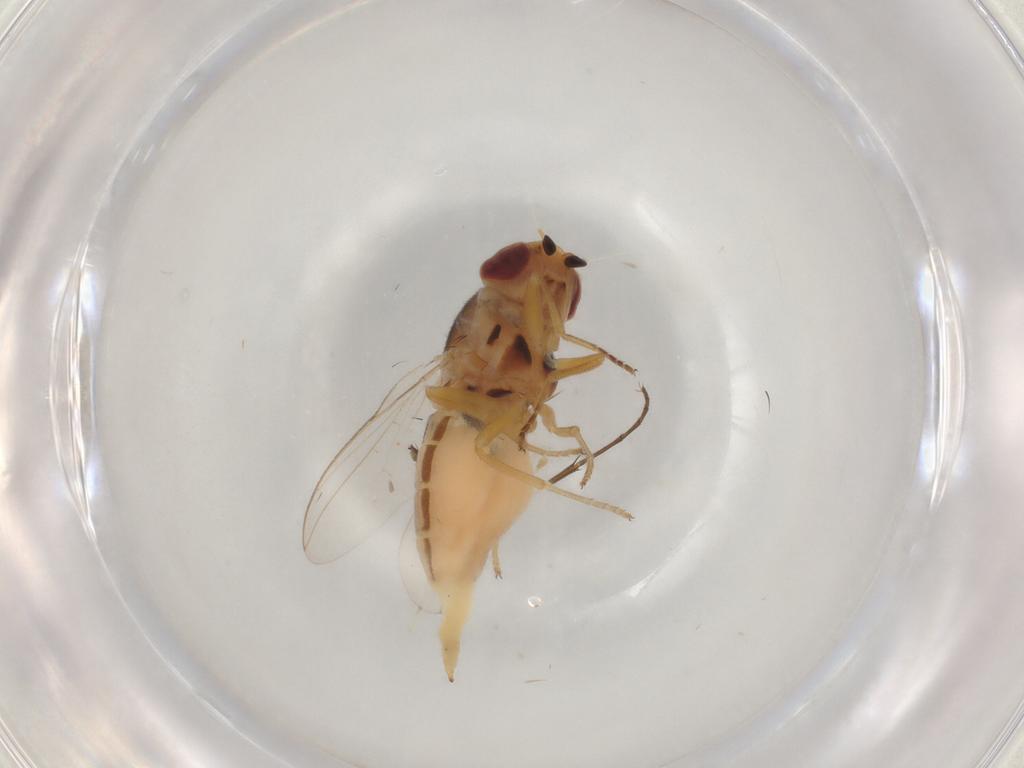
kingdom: Animalia
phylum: Arthropoda
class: Insecta
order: Diptera
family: Chloropidae
